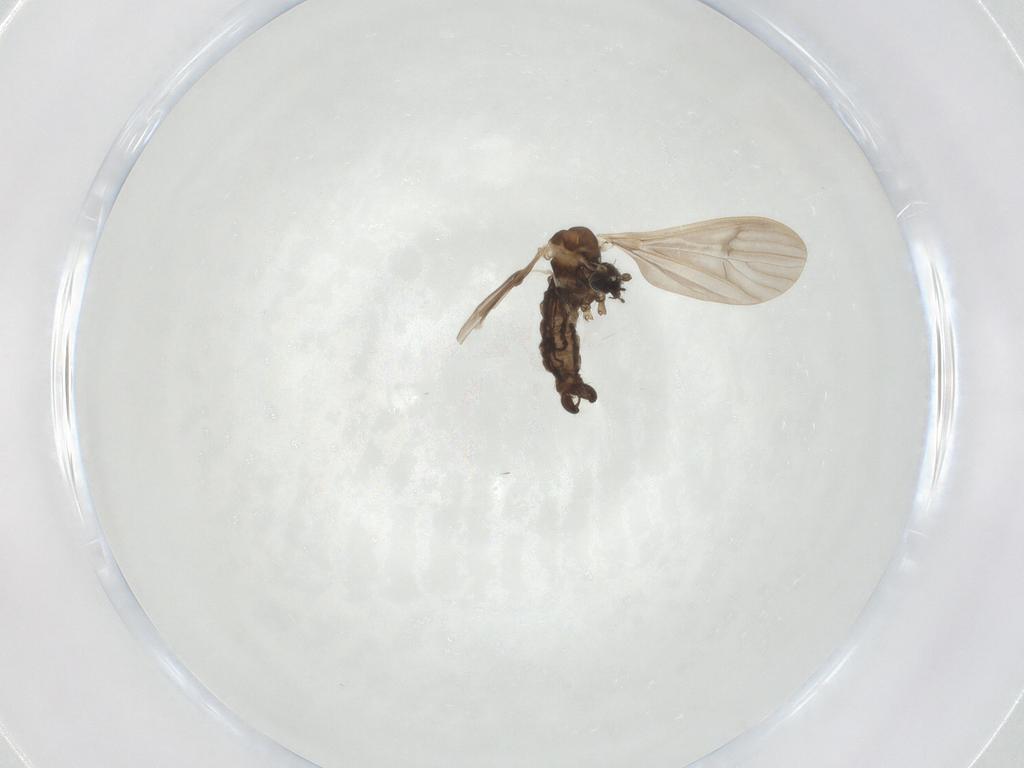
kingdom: Animalia
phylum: Arthropoda
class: Insecta
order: Diptera
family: Limoniidae
